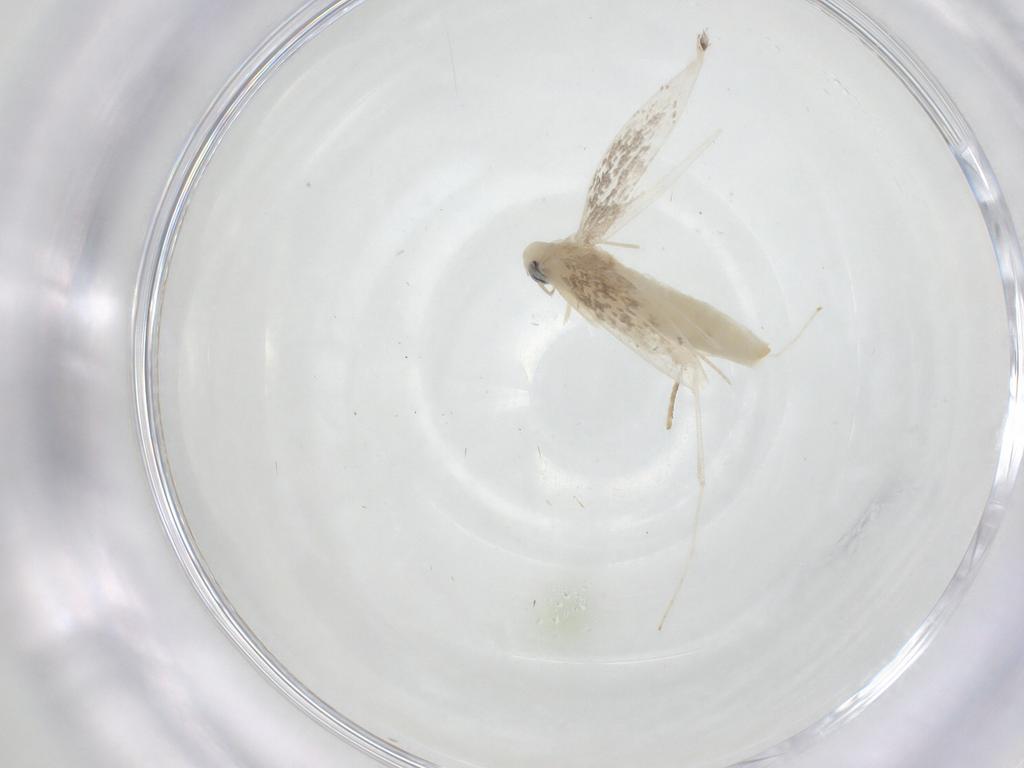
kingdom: Animalia
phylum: Arthropoda
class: Insecta
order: Lepidoptera
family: Gracillariidae
